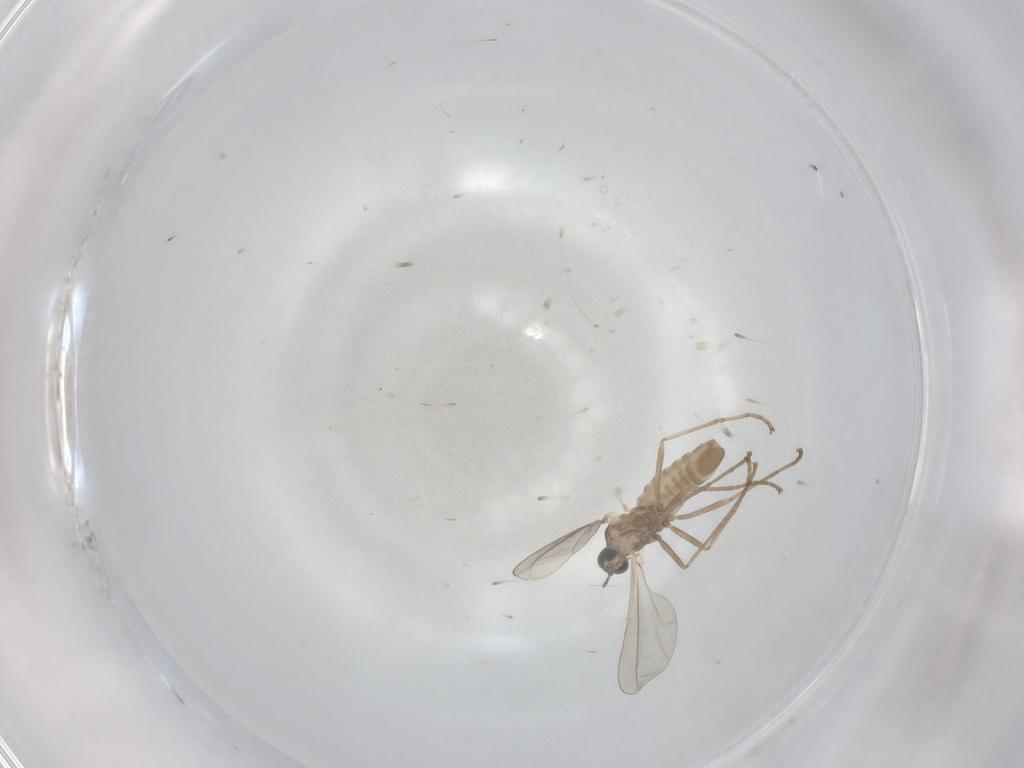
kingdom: Animalia
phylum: Arthropoda
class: Insecta
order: Diptera
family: Cecidomyiidae
